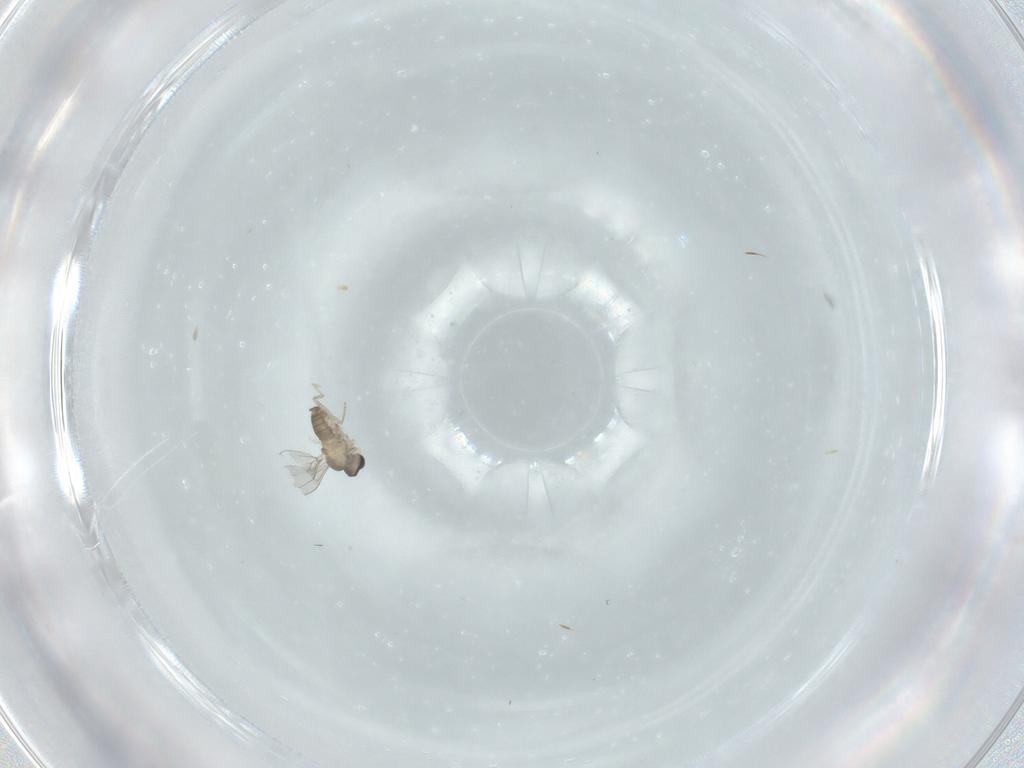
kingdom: Animalia
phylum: Arthropoda
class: Insecta
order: Diptera
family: Cecidomyiidae
